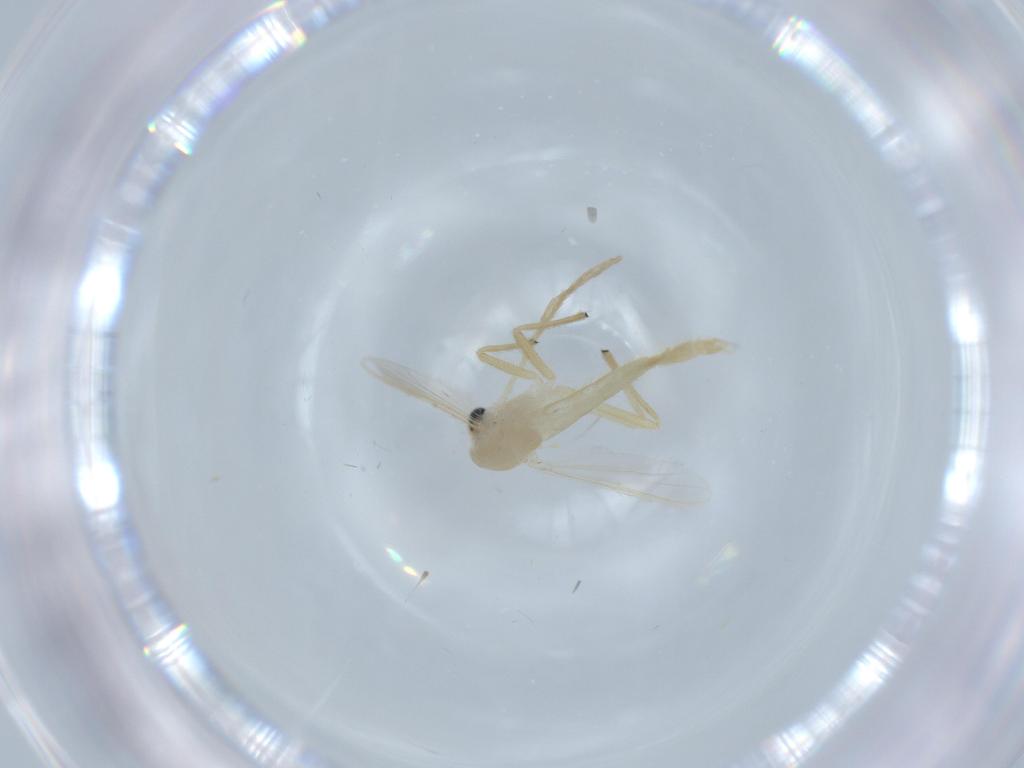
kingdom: Animalia
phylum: Arthropoda
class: Insecta
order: Diptera
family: Chironomidae
